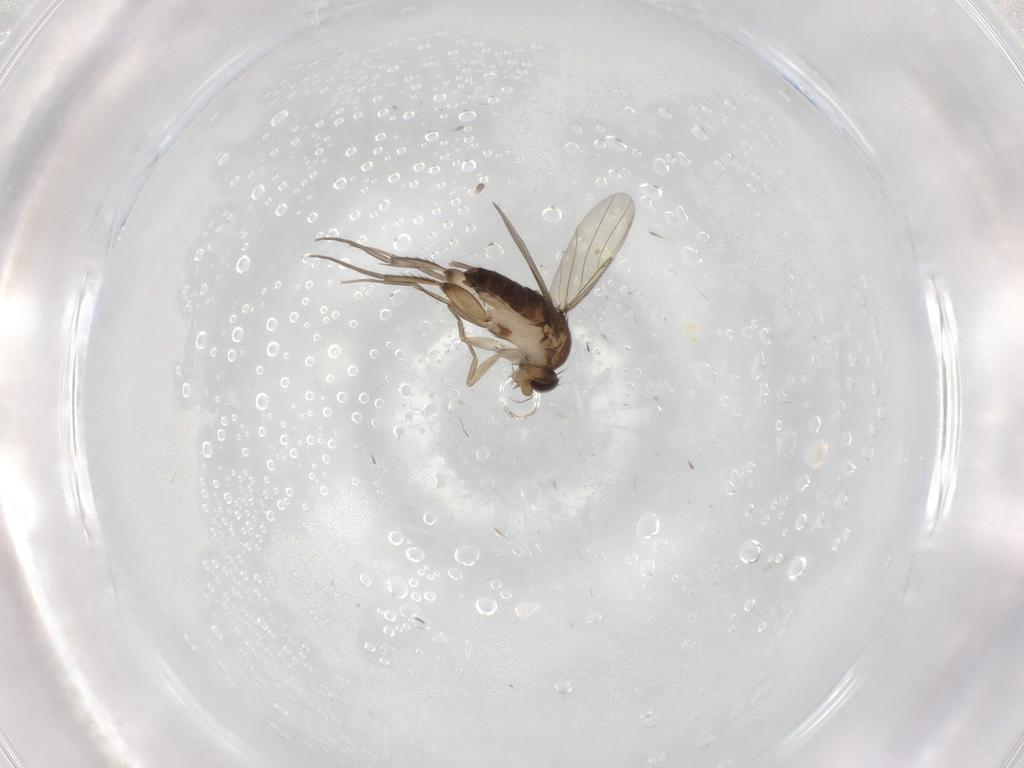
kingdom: Animalia
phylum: Arthropoda
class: Insecta
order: Diptera
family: Phoridae
